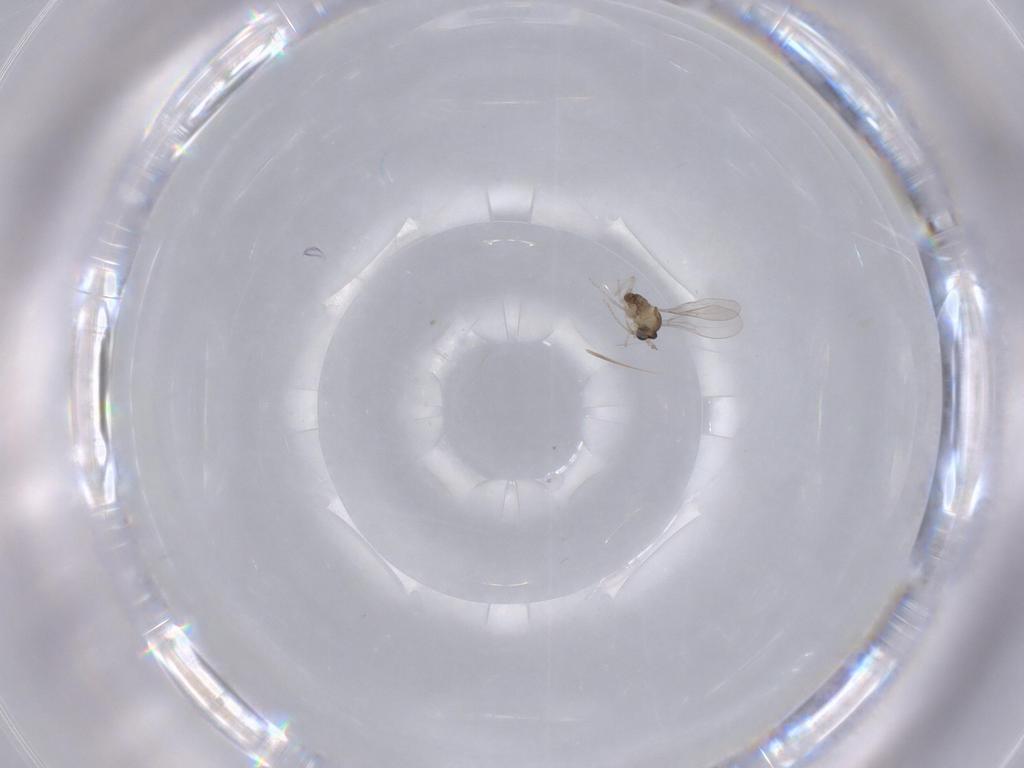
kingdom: Animalia
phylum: Arthropoda
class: Insecta
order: Diptera
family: Cecidomyiidae
